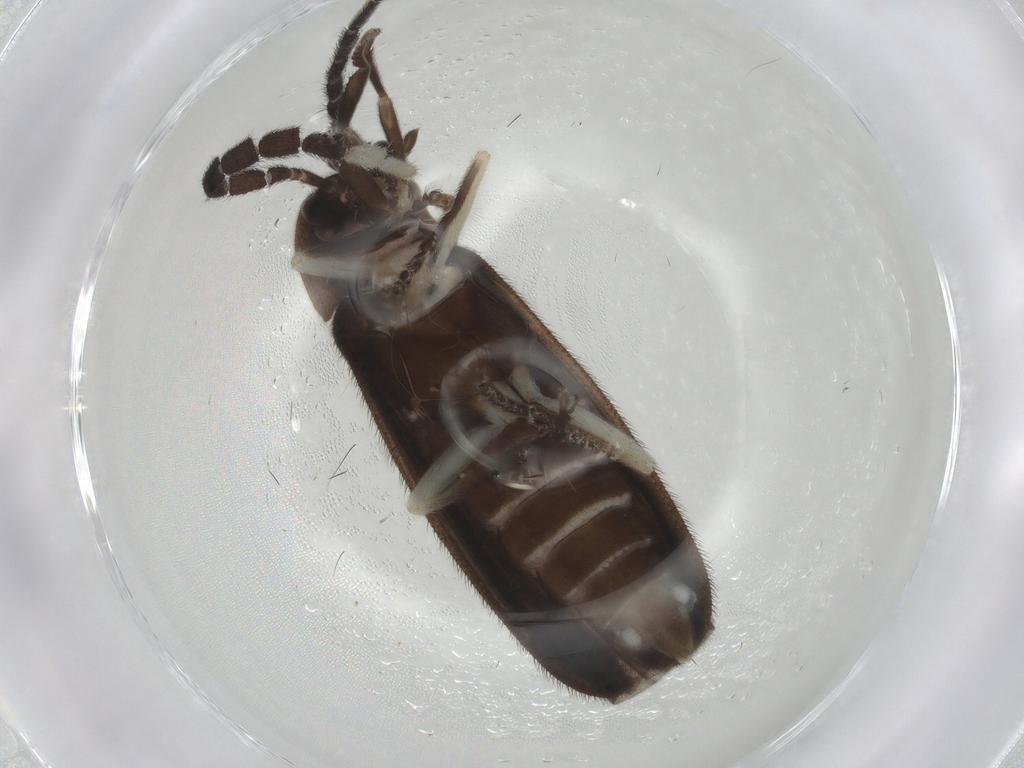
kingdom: Animalia
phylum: Arthropoda
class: Insecta
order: Coleoptera
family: Lampyridae
